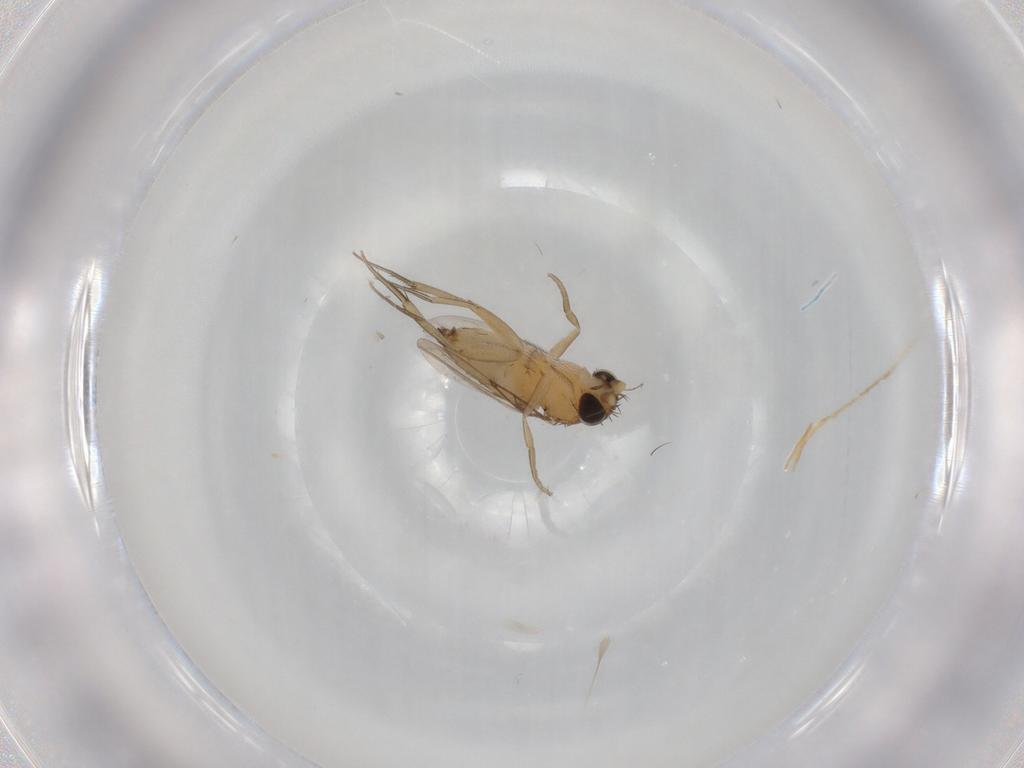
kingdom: Animalia
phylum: Arthropoda
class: Insecta
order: Diptera
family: Phoridae
